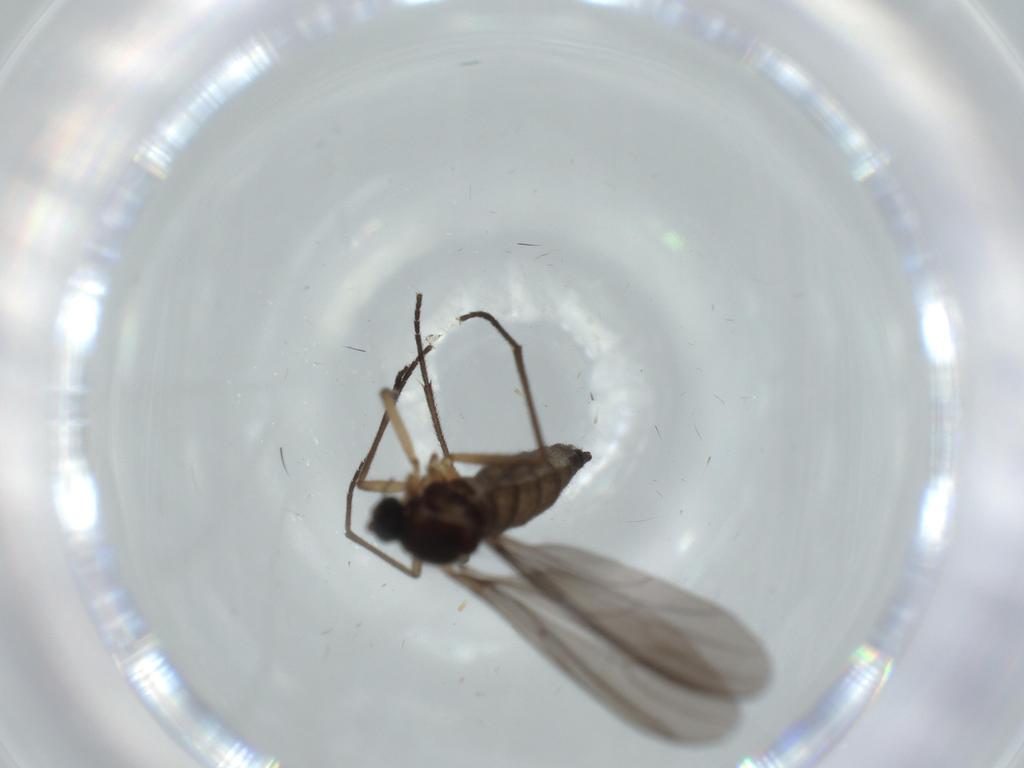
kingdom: Animalia
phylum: Arthropoda
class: Insecta
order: Diptera
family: Sciaridae
